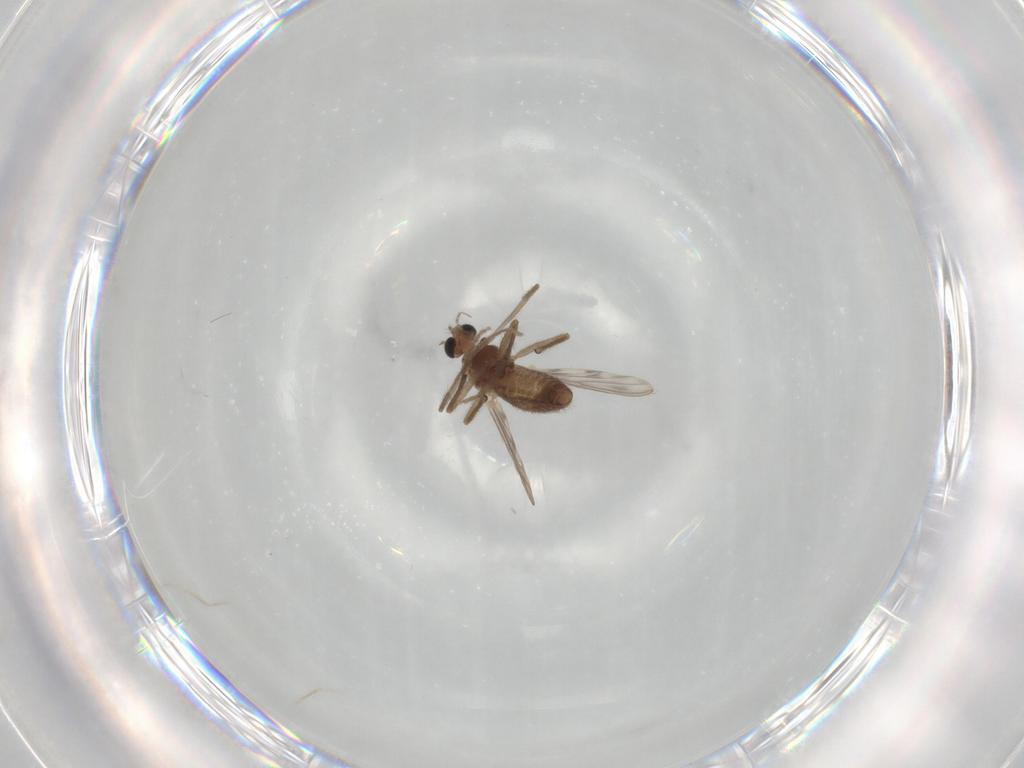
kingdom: Animalia
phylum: Arthropoda
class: Insecta
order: Diptera
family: Chironomidae
